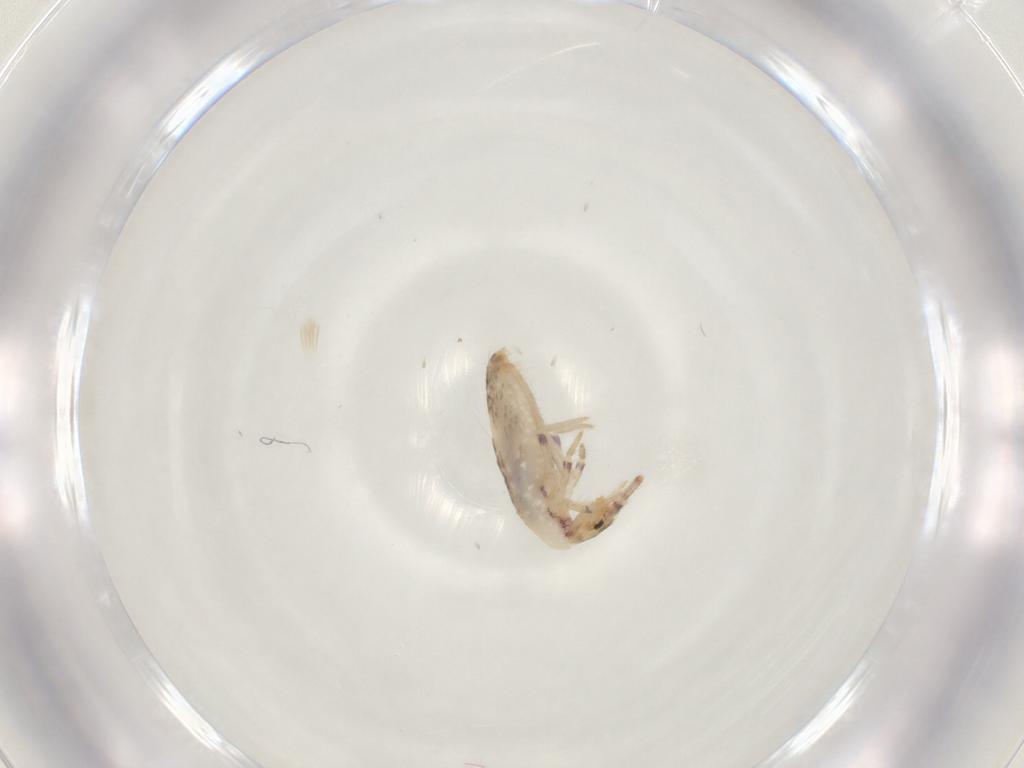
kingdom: Animalia
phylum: Arthropoda
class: Collembola
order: Entomobryomorpha
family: Entomobryidae
